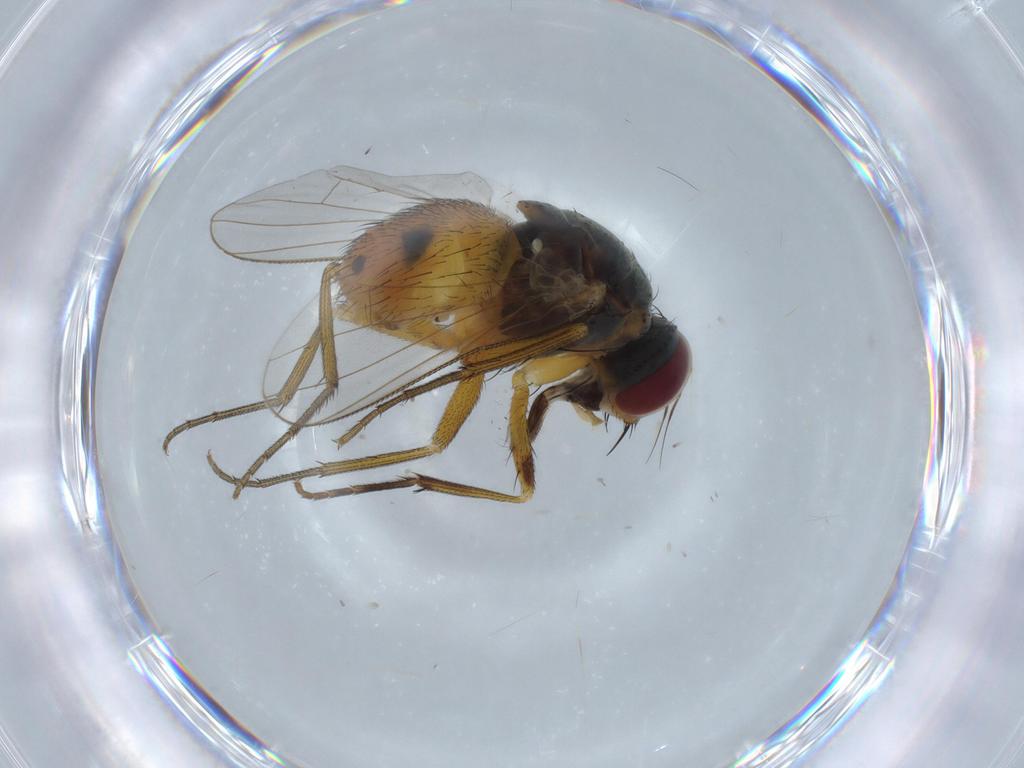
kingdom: Animalia
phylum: Arthropoda
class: Insecta
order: Diptera
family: Muscidae
